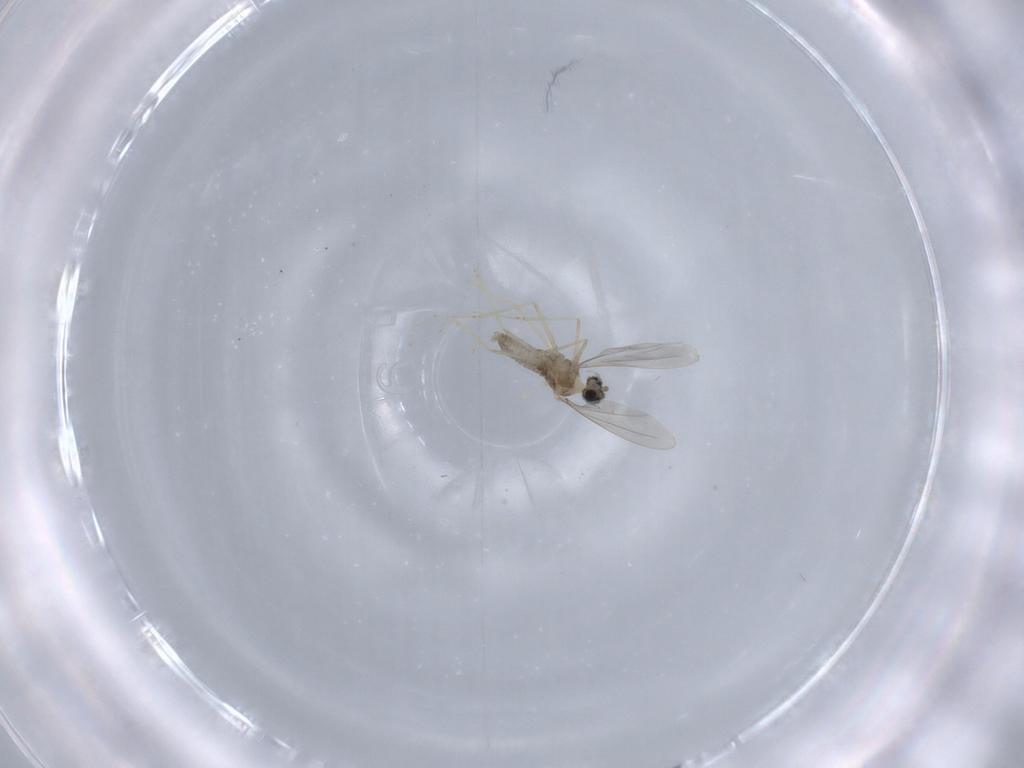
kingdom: Animalia
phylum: Arthropoda
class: Insecta
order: Diptera
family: Cecidomyiidae
